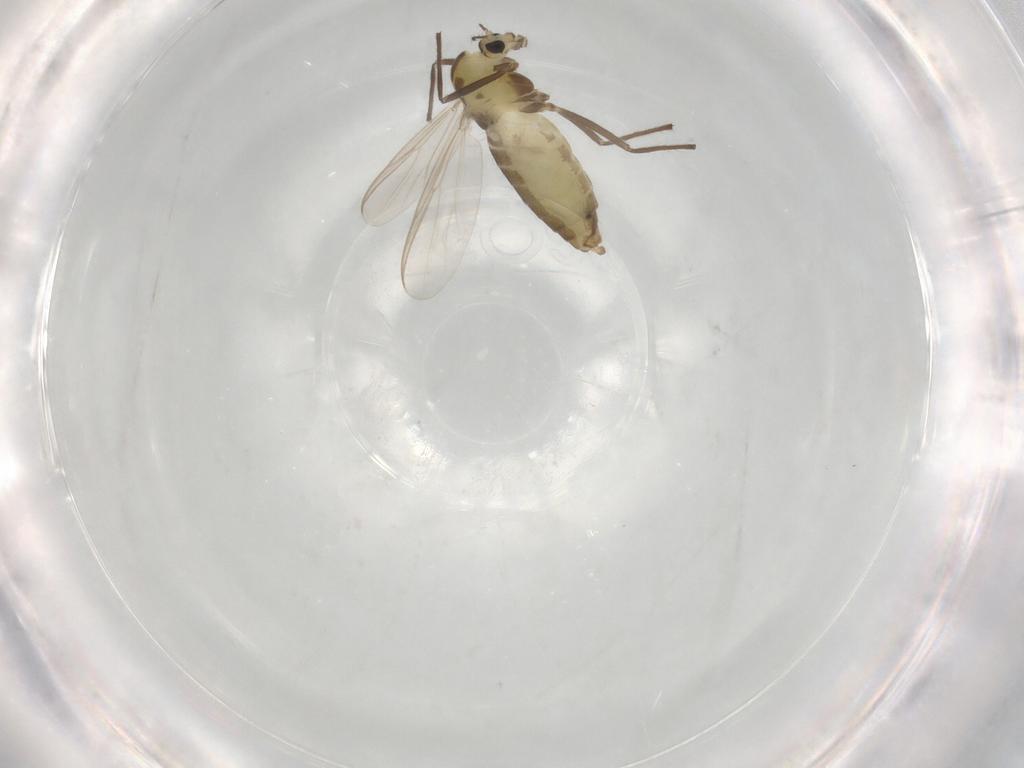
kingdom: Animalia
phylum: Arthropoda
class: Insecta
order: Diptera
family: Chironomidae
